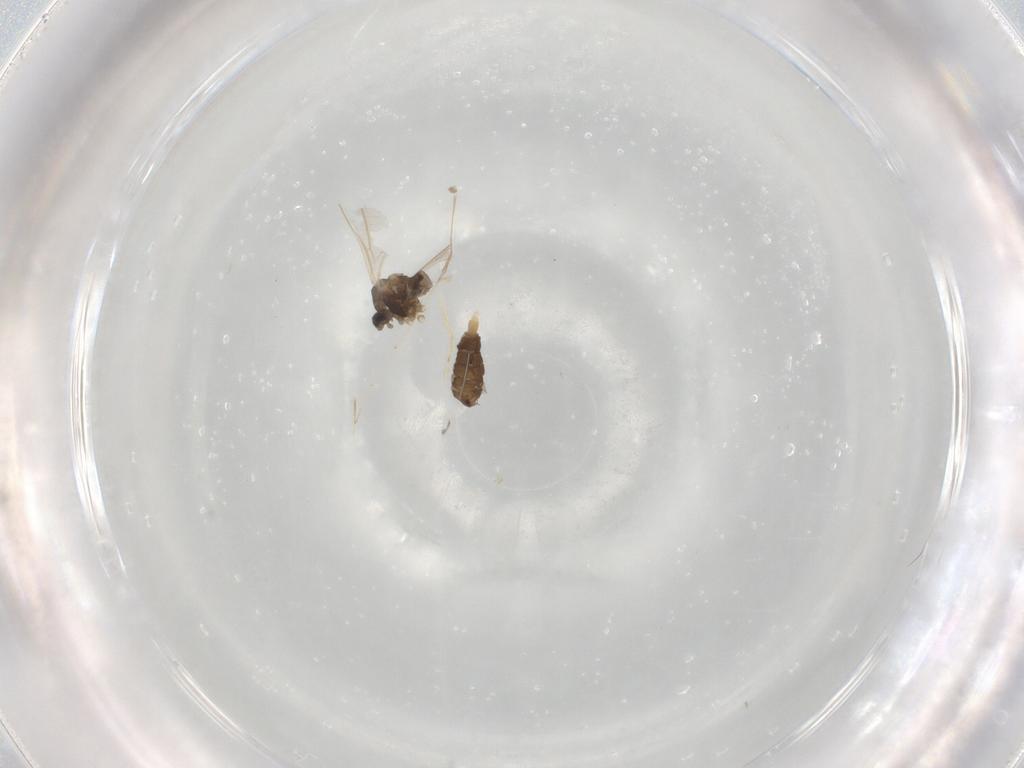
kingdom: Animalia
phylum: Arthropoda
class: Insecta
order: Diptera
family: Cecidomyiidae
